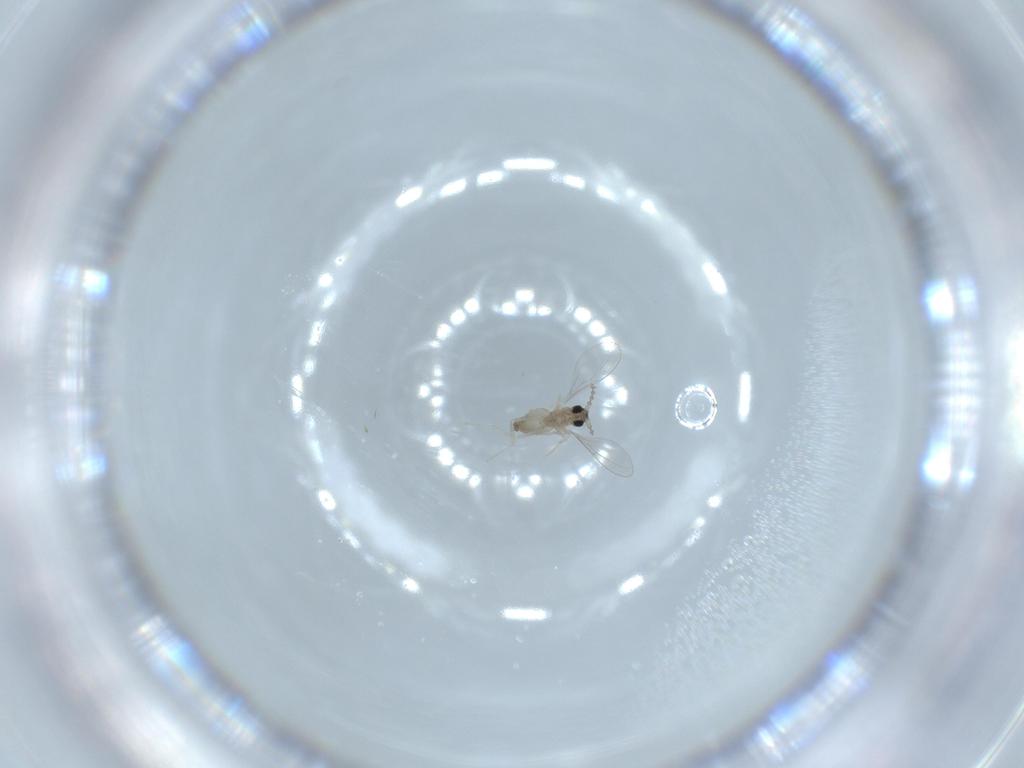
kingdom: Animalia
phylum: Arthropoda
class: Insecta
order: Diptera
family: Cecidomyiidae
